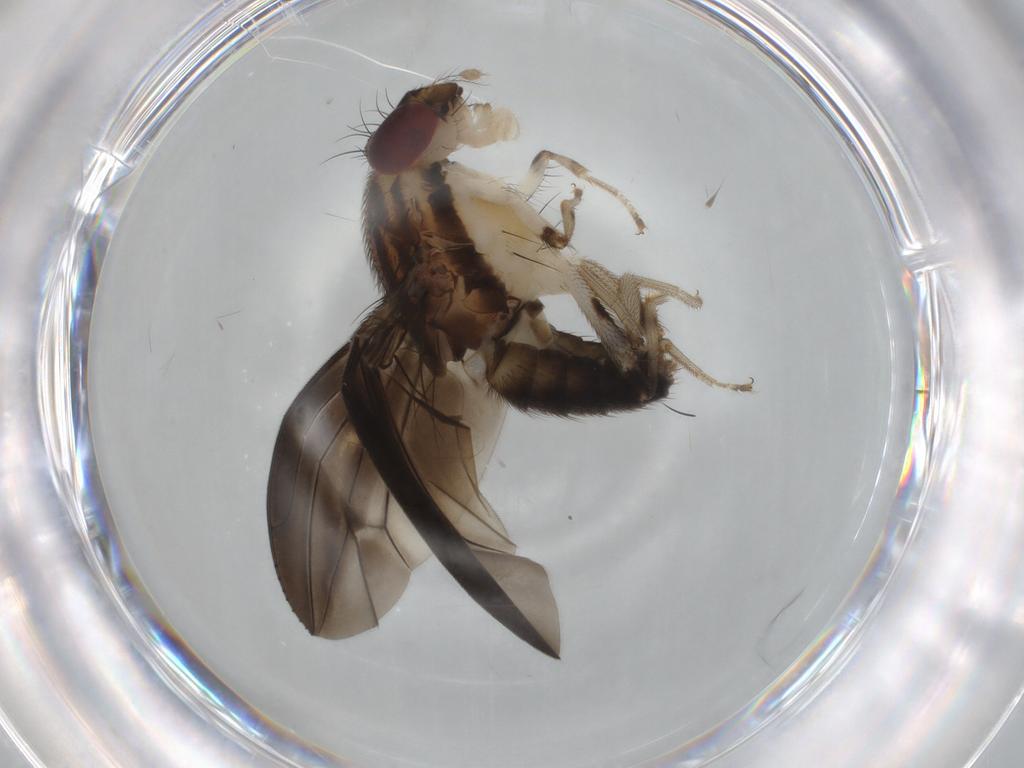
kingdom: Animalia
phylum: Arthropoda
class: Insecta
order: Diptera
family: Drosophilidae
